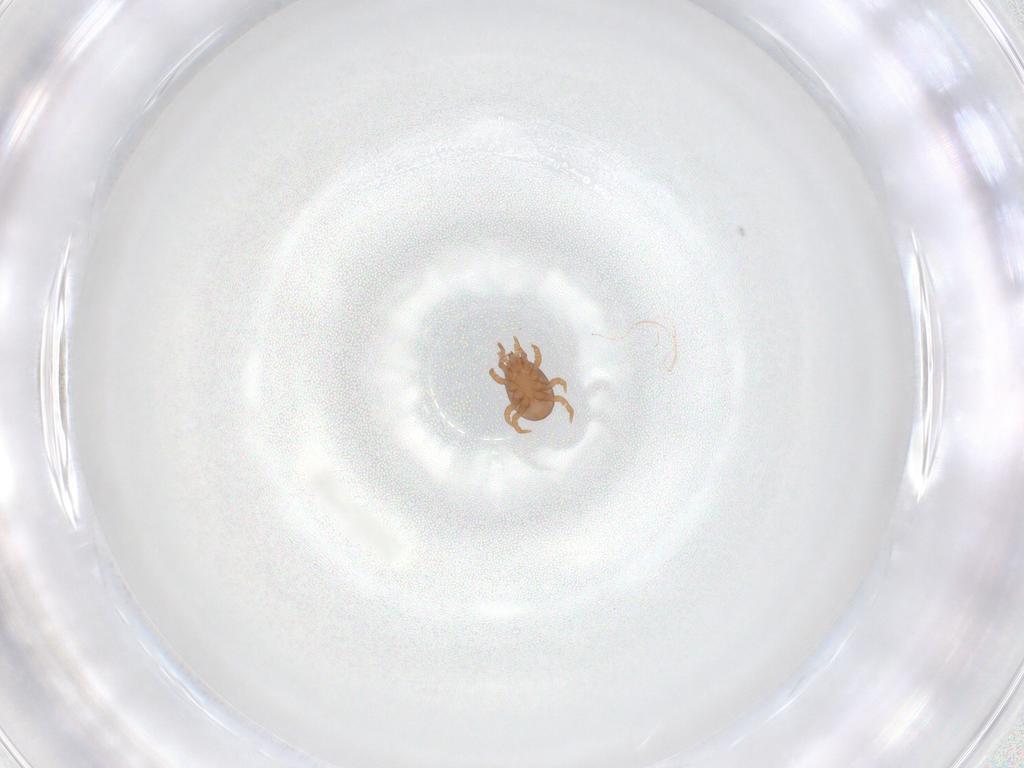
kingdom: Animalia
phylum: Arthropoda
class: Arachnida
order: Mesostigmata
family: Eviphididae
